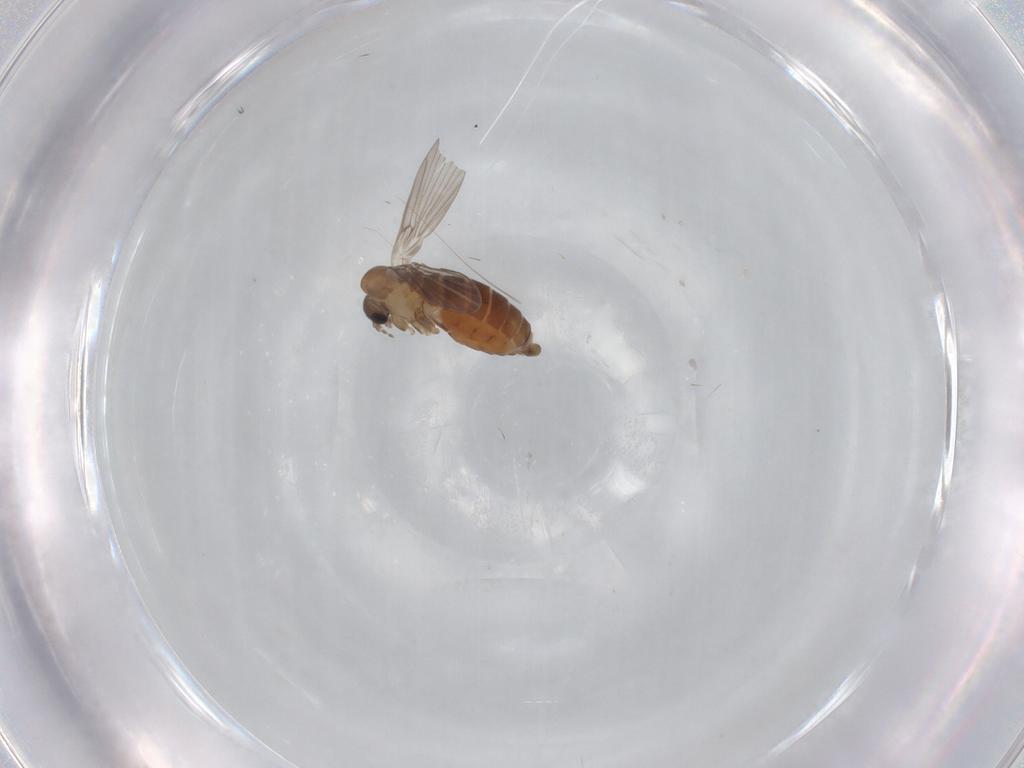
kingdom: Animalia
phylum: Arthropoda
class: Insecta
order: Diptera
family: Psychodidae
